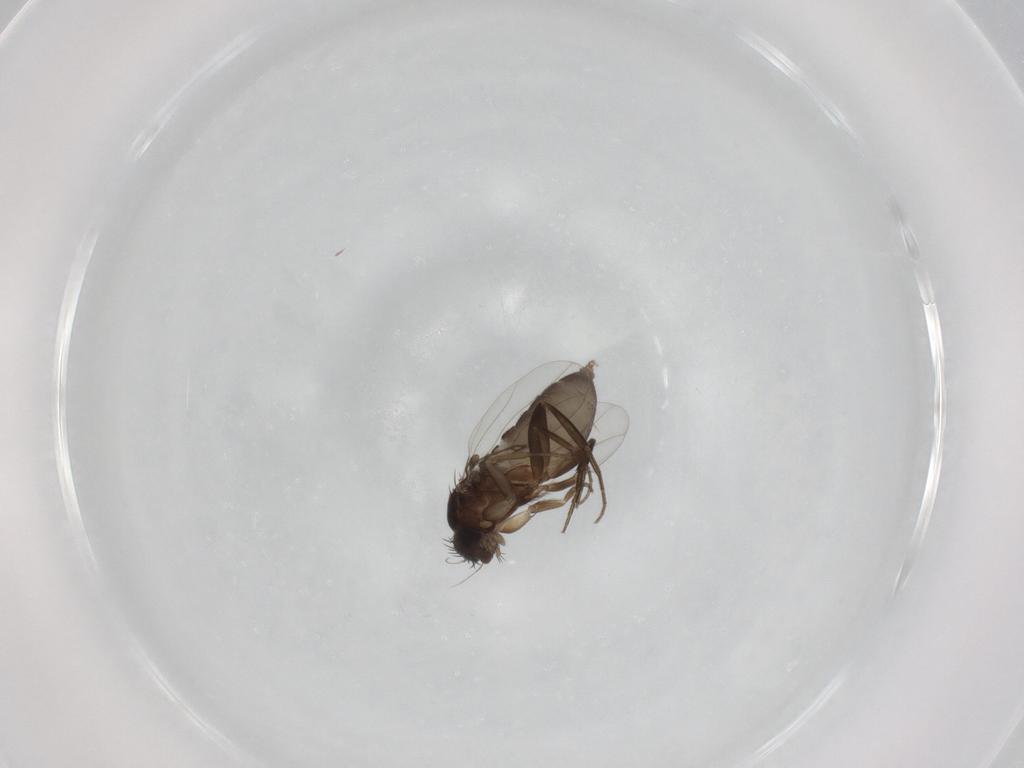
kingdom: Animalia
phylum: Arthropoda
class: Insecta
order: Diptera
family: Phoridae
